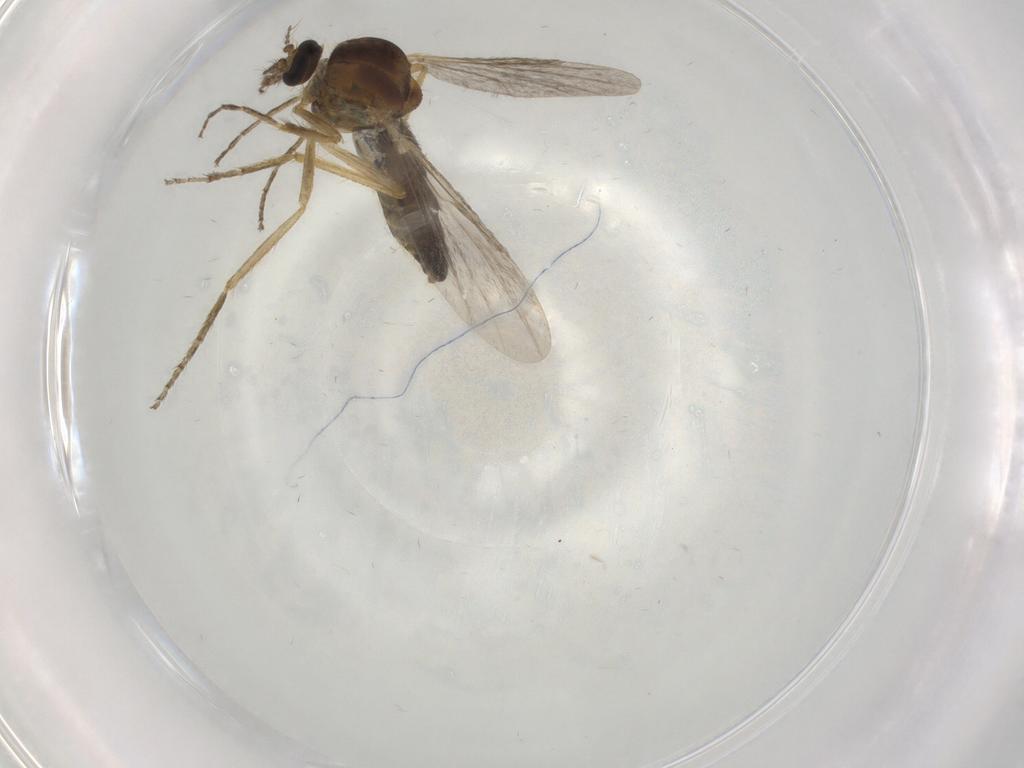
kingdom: Animalia
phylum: Arthropoda
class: Insecta
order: Diptera
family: Ceratopogonidae
